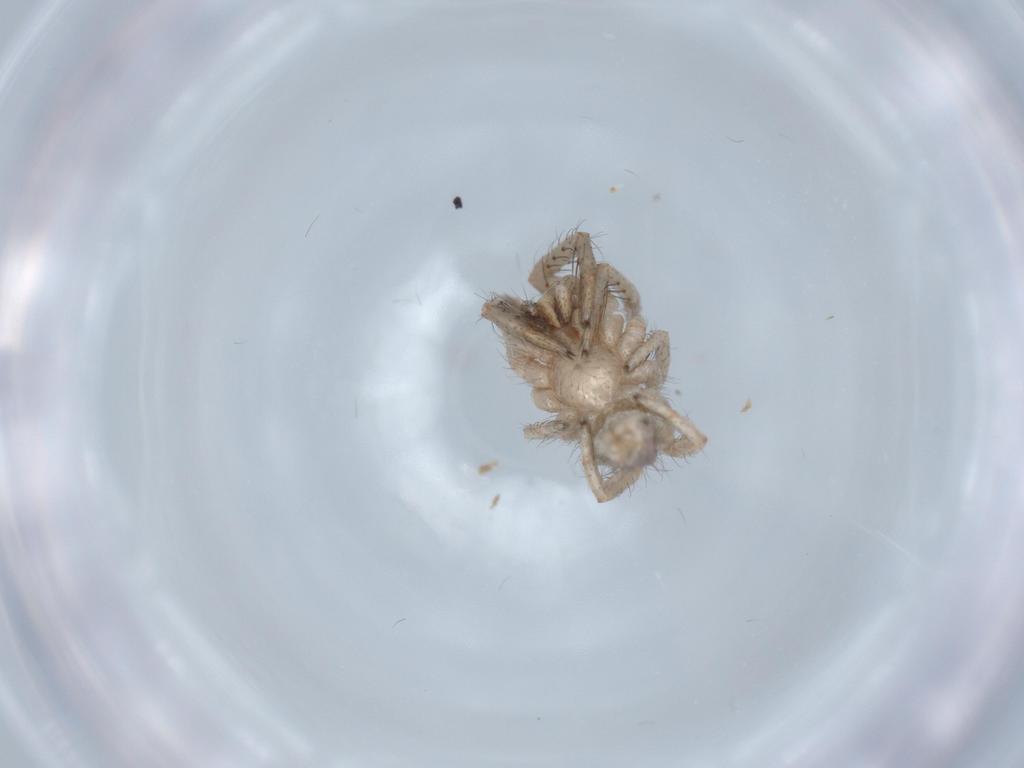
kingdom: Animalia
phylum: Arthropoda
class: Arachnida
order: Araneae
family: Segestriidae
